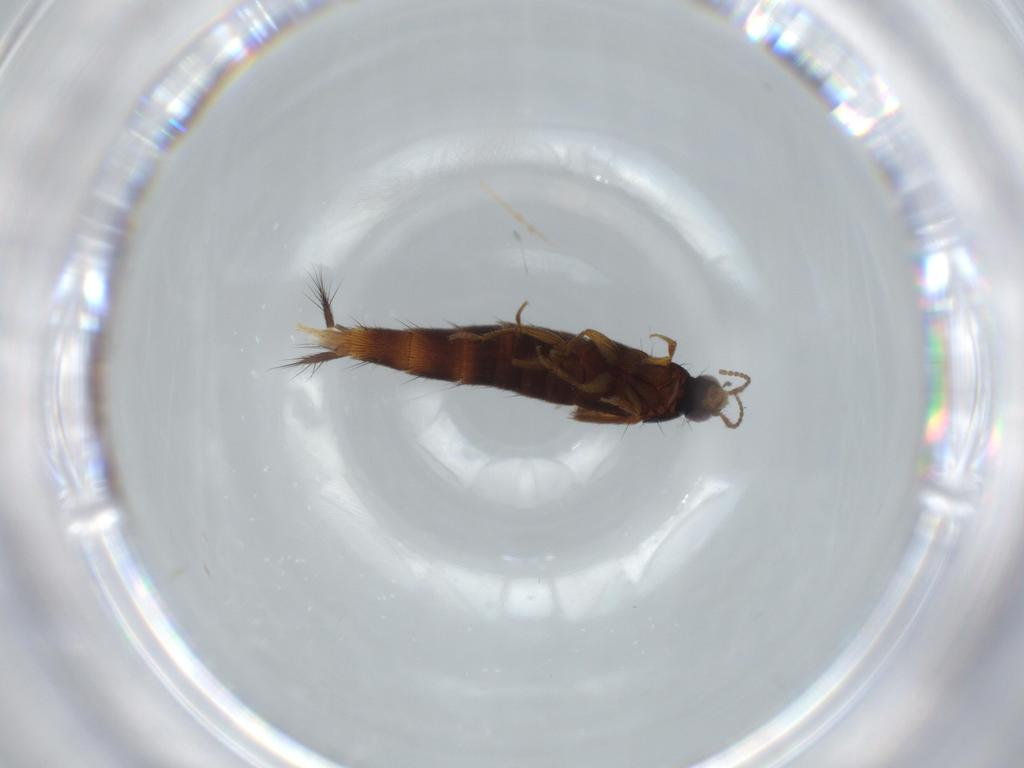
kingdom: Animalia
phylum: Arthropoda
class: Insecta
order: Coleoptera
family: Staphylinidae
